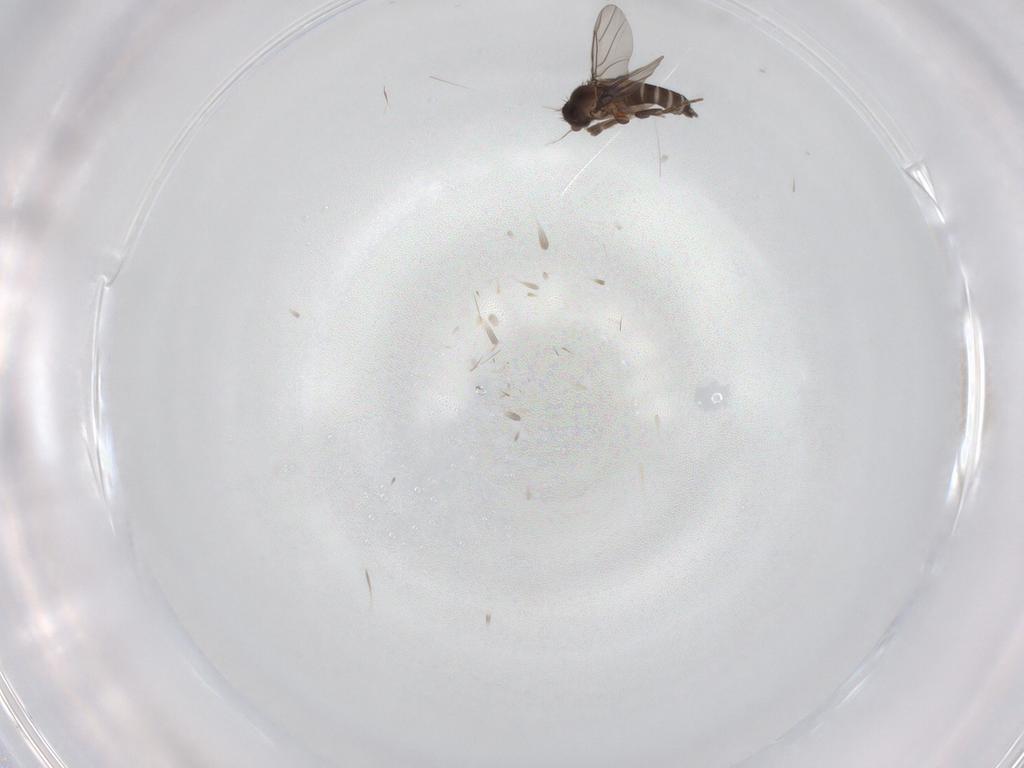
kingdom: Animalia
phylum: Arthropoda
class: Insecta
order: Diptera
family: Phoridae
